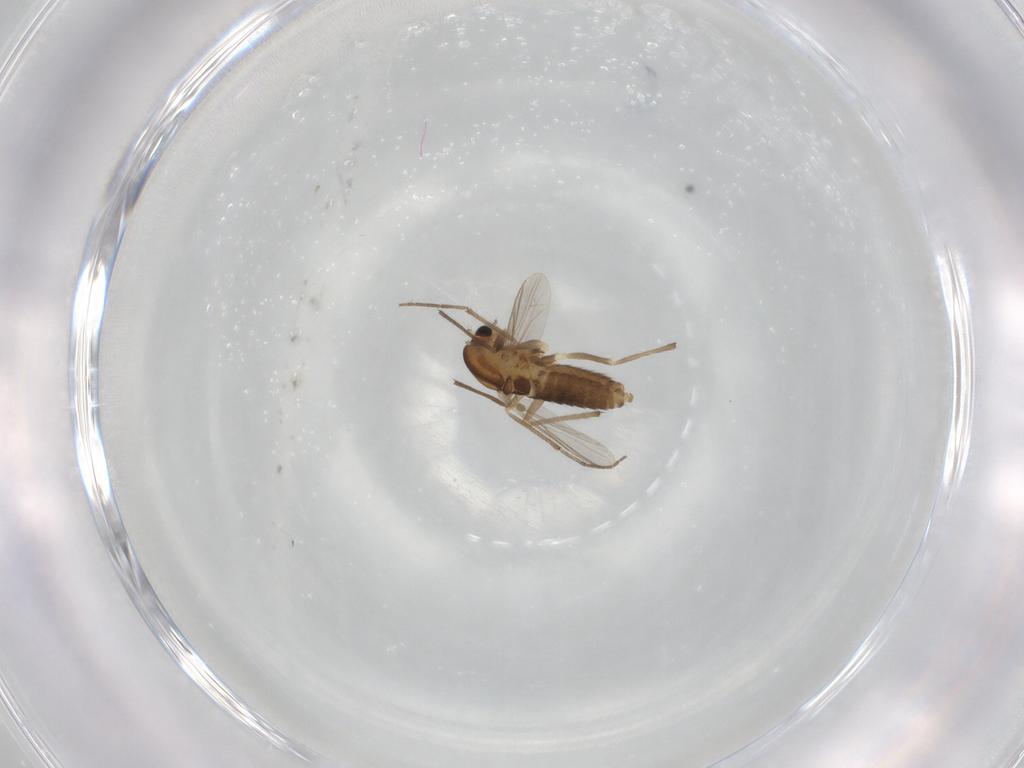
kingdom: Animalia
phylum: Arthropoda
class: Insecta
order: Diptera
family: Chironomidae
